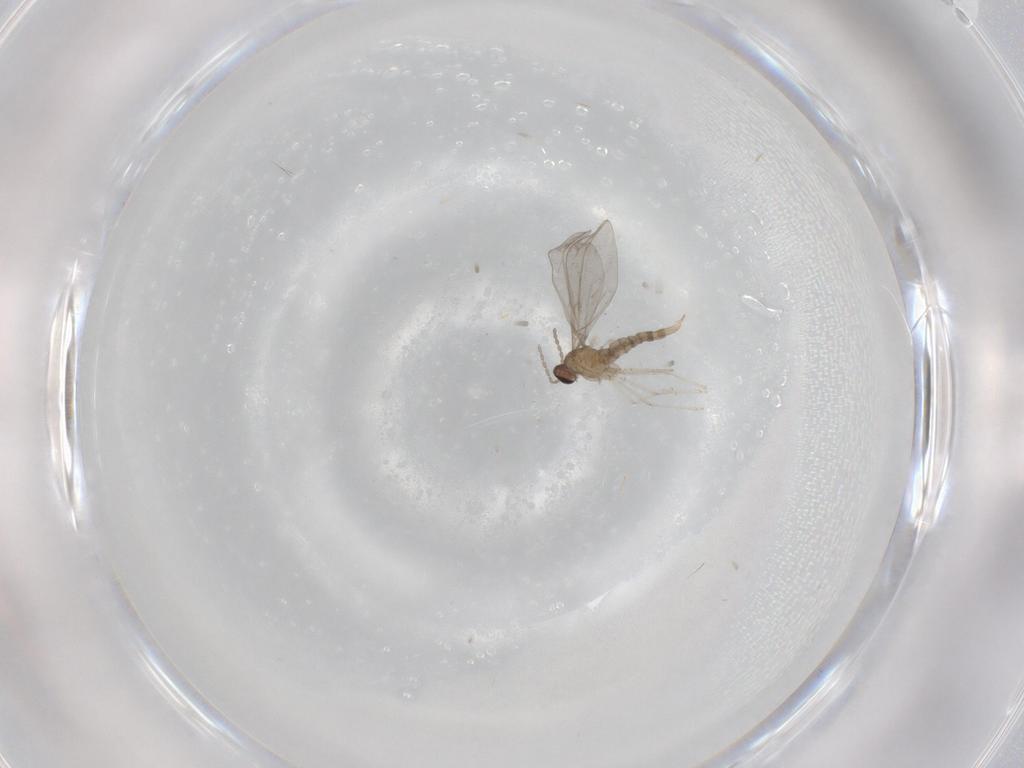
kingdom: Animalia
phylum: Arthropoda
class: Insecta
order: Diptera
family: Cecidomyiidae
